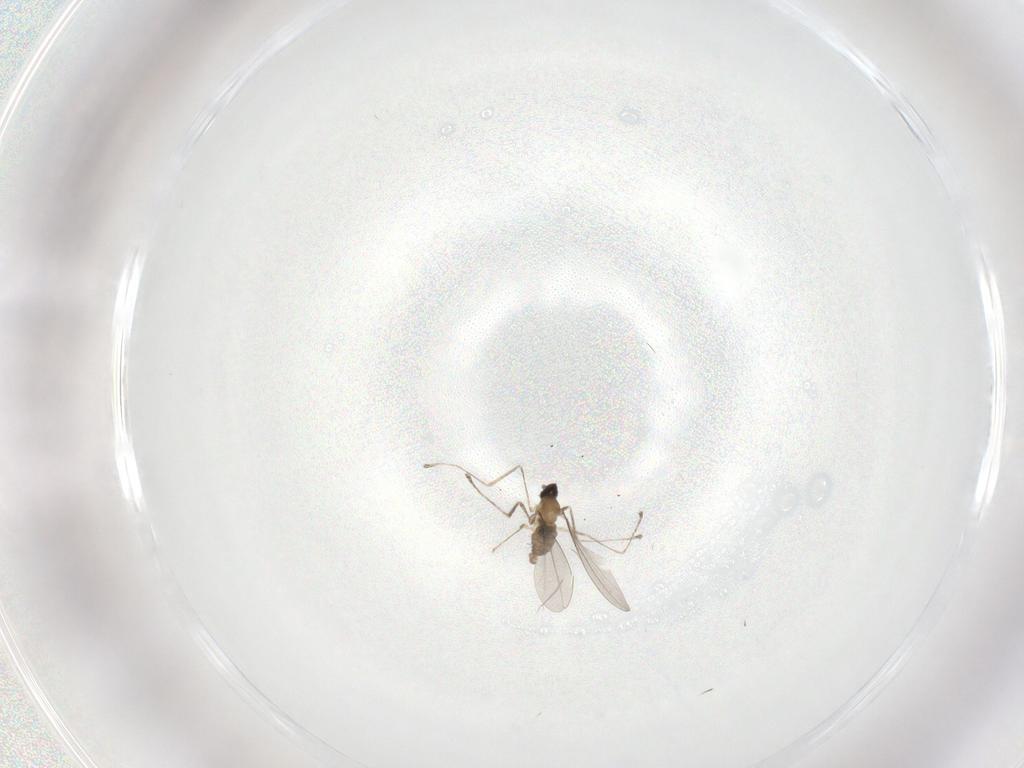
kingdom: Animalia
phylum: Arthropoda
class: Insecta
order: Diptera
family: Cecidomyiidae
